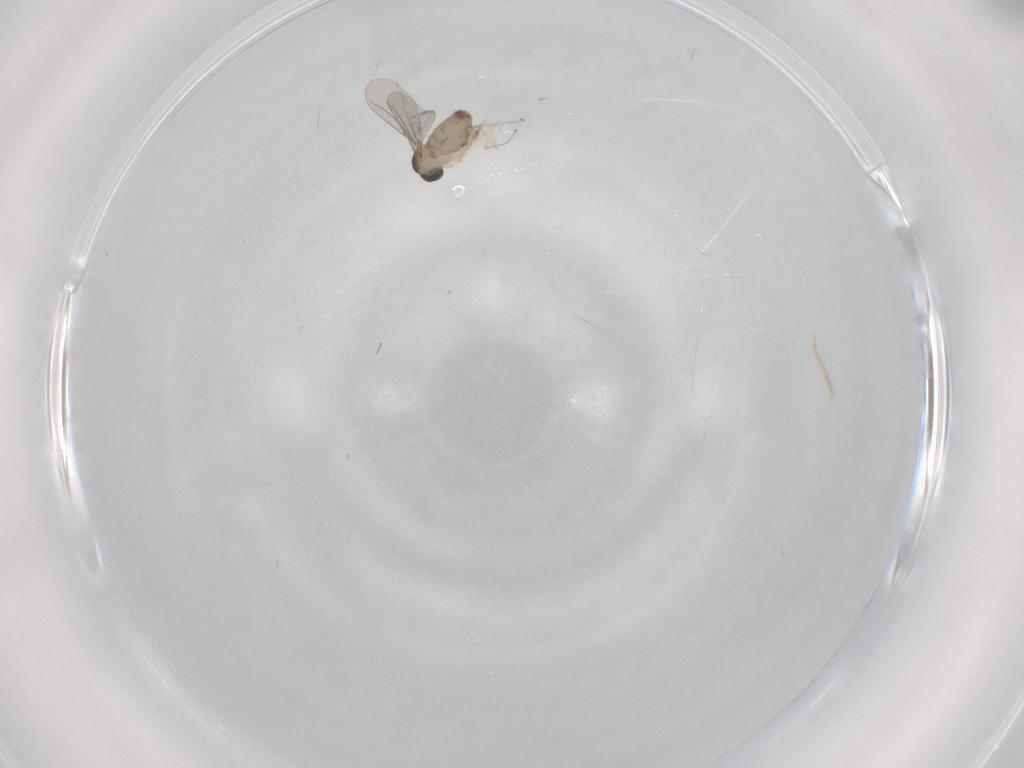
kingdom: Animalia
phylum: Arthropoda
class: Insecta
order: Diptera
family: Cecidomyiidae
